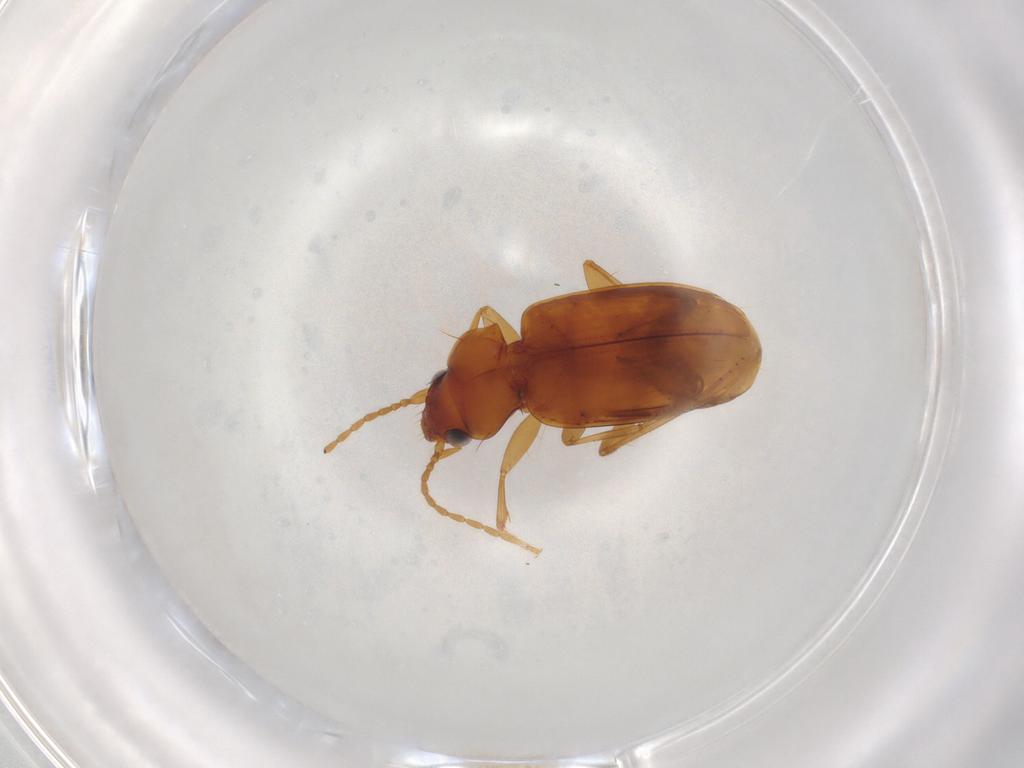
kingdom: Animalia
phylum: Arthropoda
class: Insecta
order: Coleoptera
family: Carabidae
